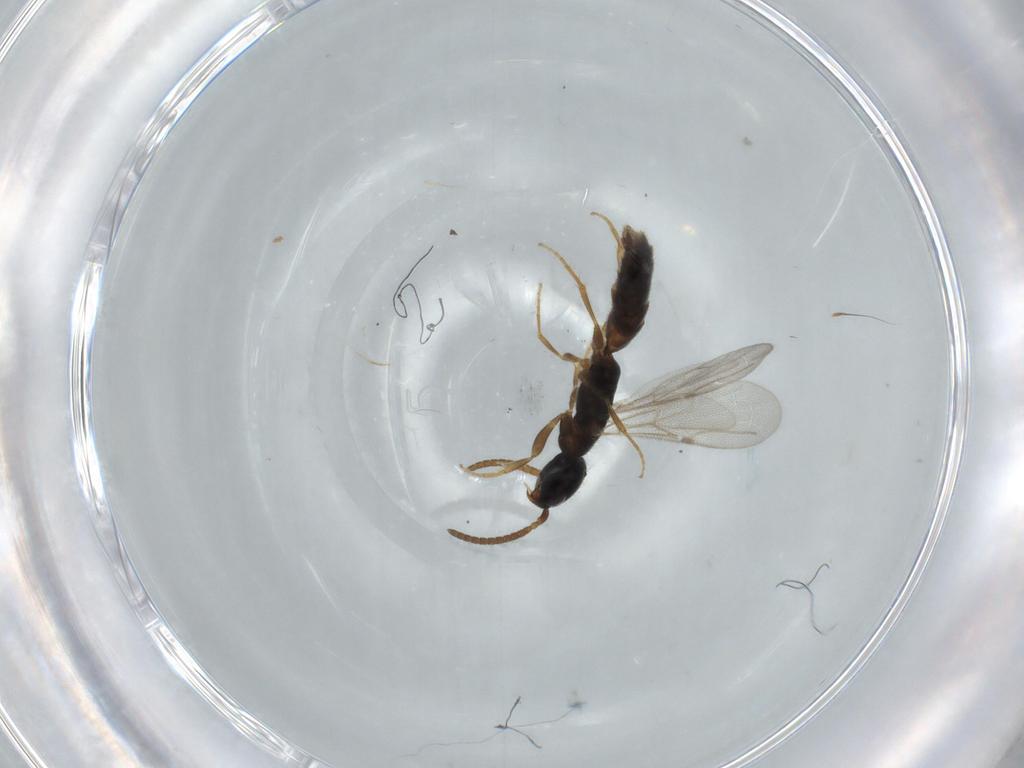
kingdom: Animalia
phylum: Arthropoda
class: Insecta
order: Hymenoptera
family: Bethylidae
